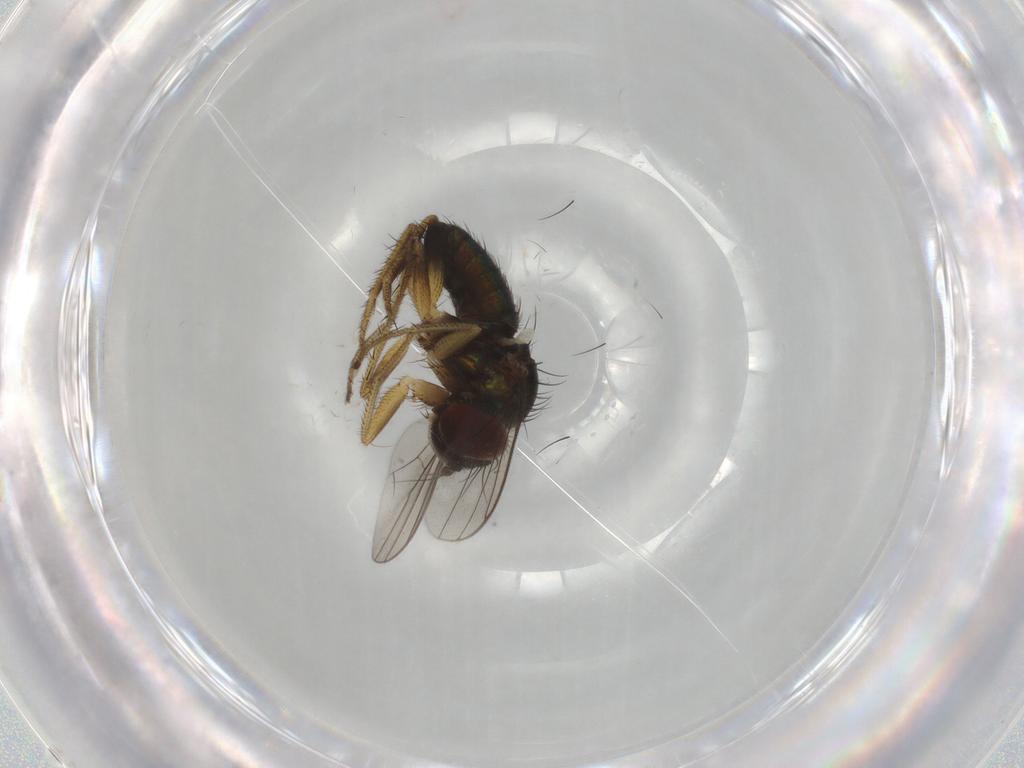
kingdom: Animalia
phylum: Arthropoda
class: Insecta
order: Diptera
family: Dolichopodidae
